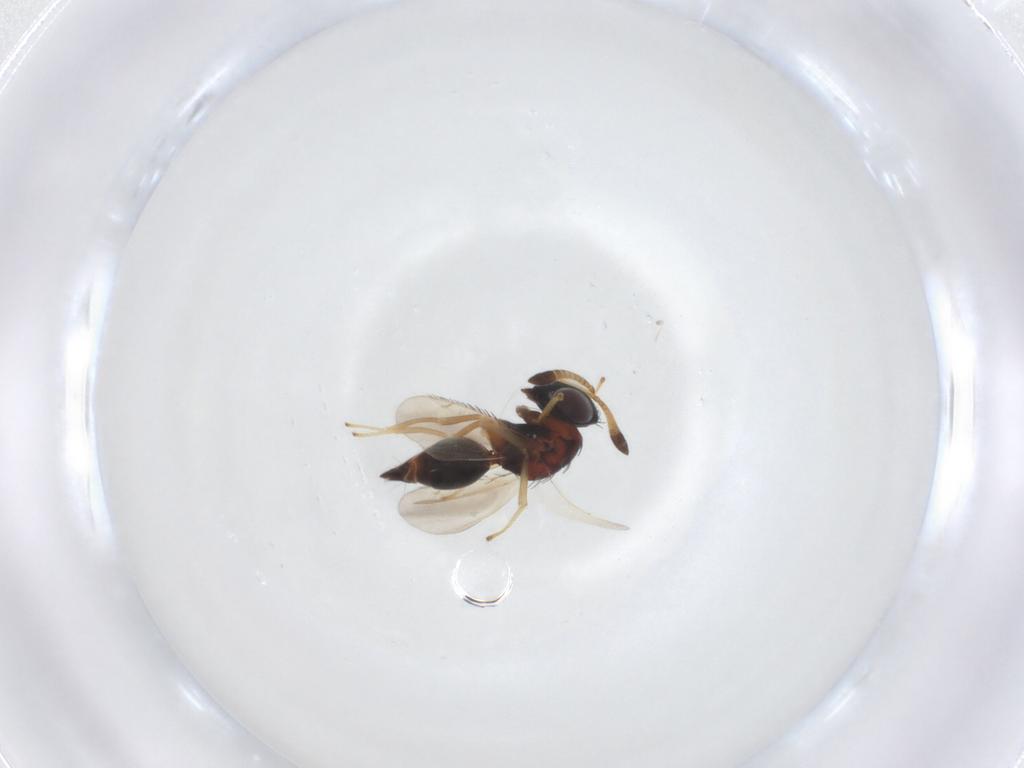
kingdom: Animalia
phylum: Arthropoda
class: Insecta
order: Hymenoptera
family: Diparidae
